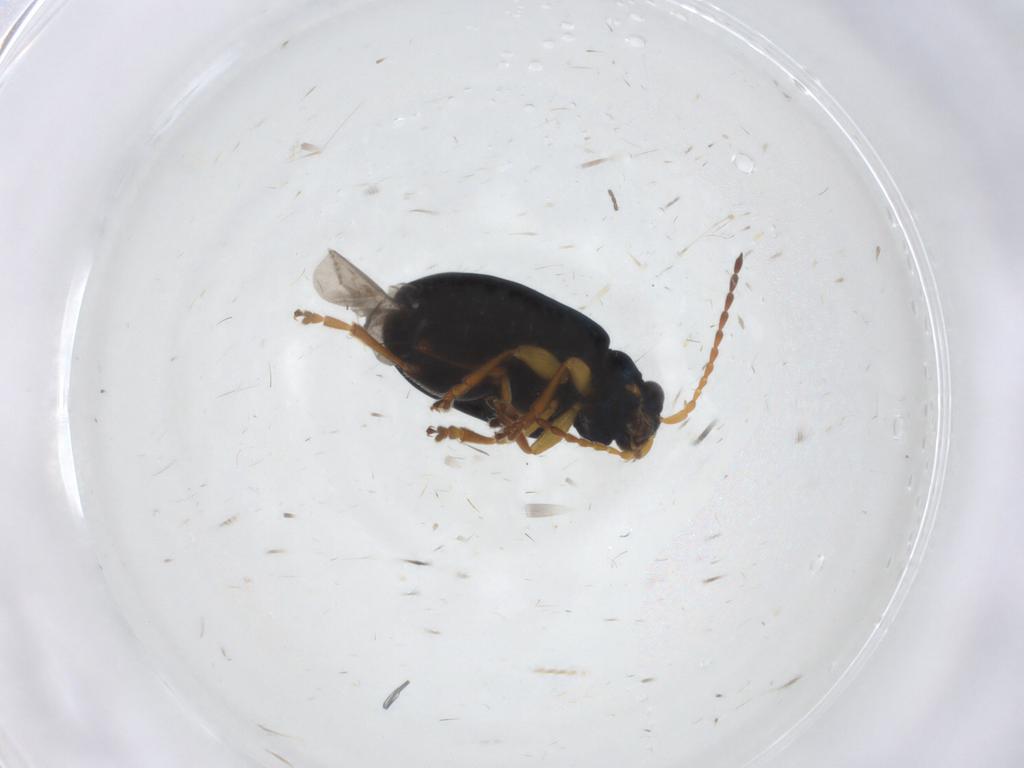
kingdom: Animalia
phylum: Arthropoda
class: Insecta
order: Coleoptera
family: Chrysomelidae
